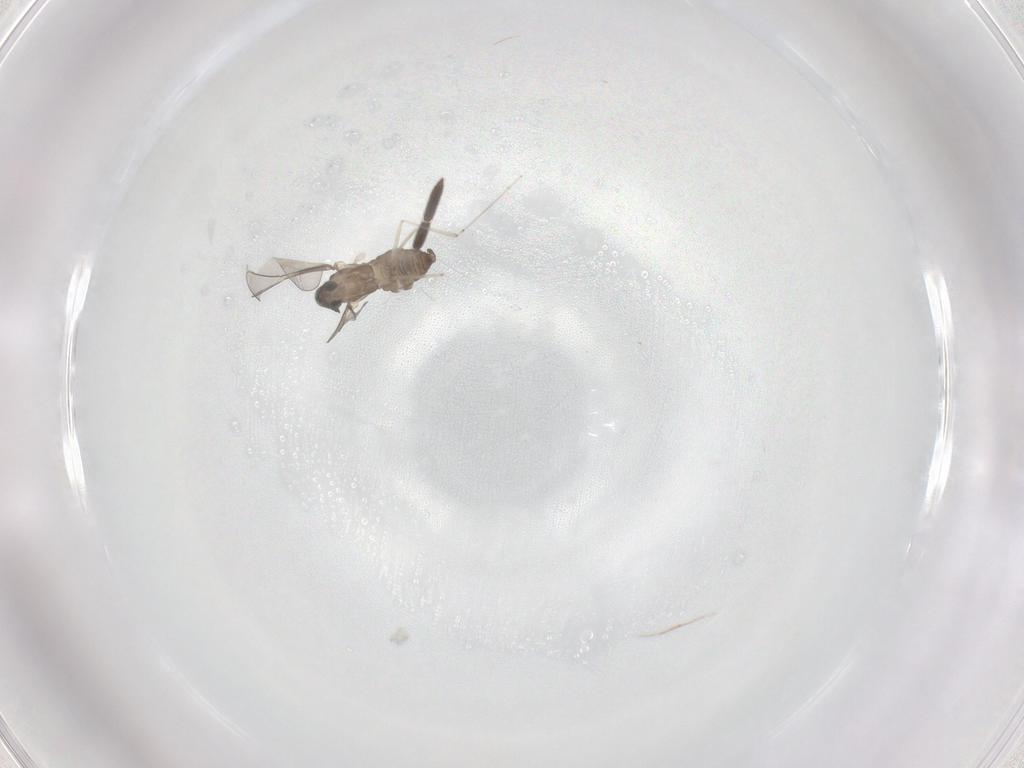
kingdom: Animalia
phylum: Arthropoda
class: Insecta
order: Diptera
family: Cecidomyiidae
